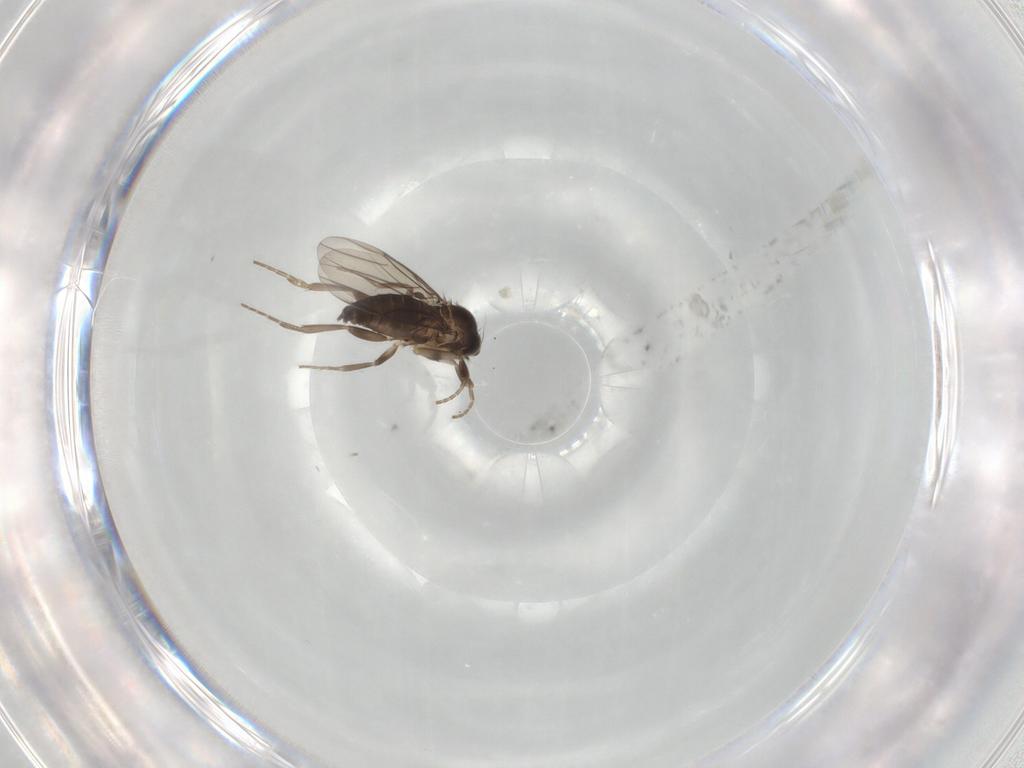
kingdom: Animalia
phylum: Arthropoda
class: Insecta
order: Diptera
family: Phoridae
